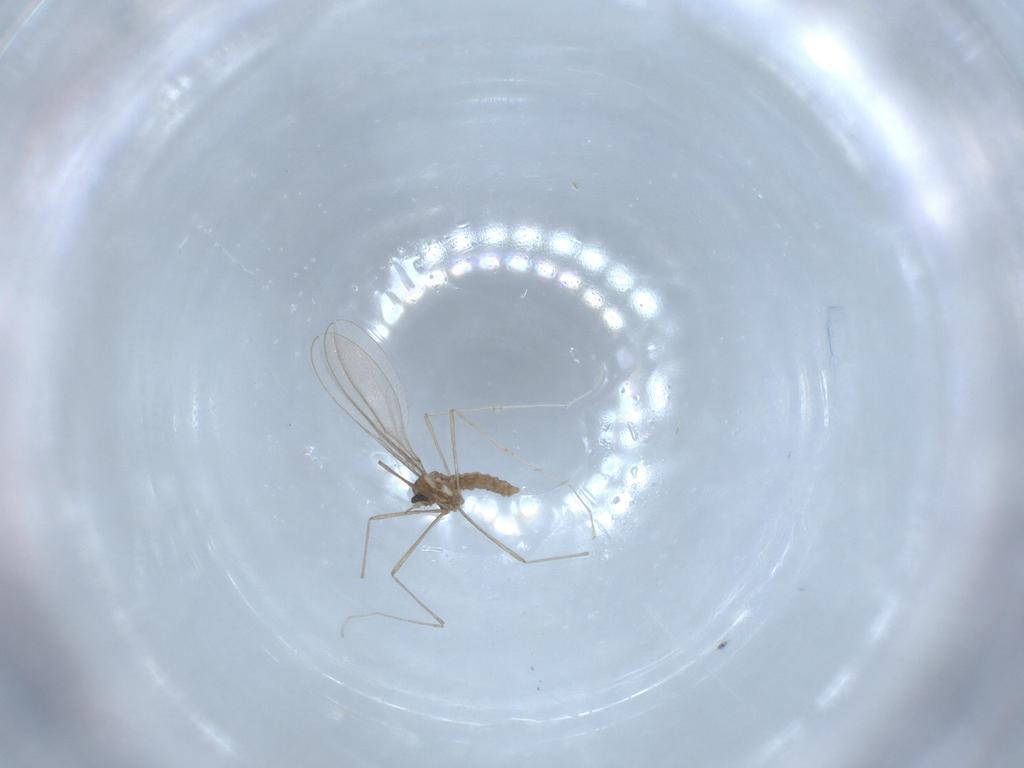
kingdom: Animalia
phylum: Arthropoda
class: Insecta
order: Diptera
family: Cecidomyiidae
